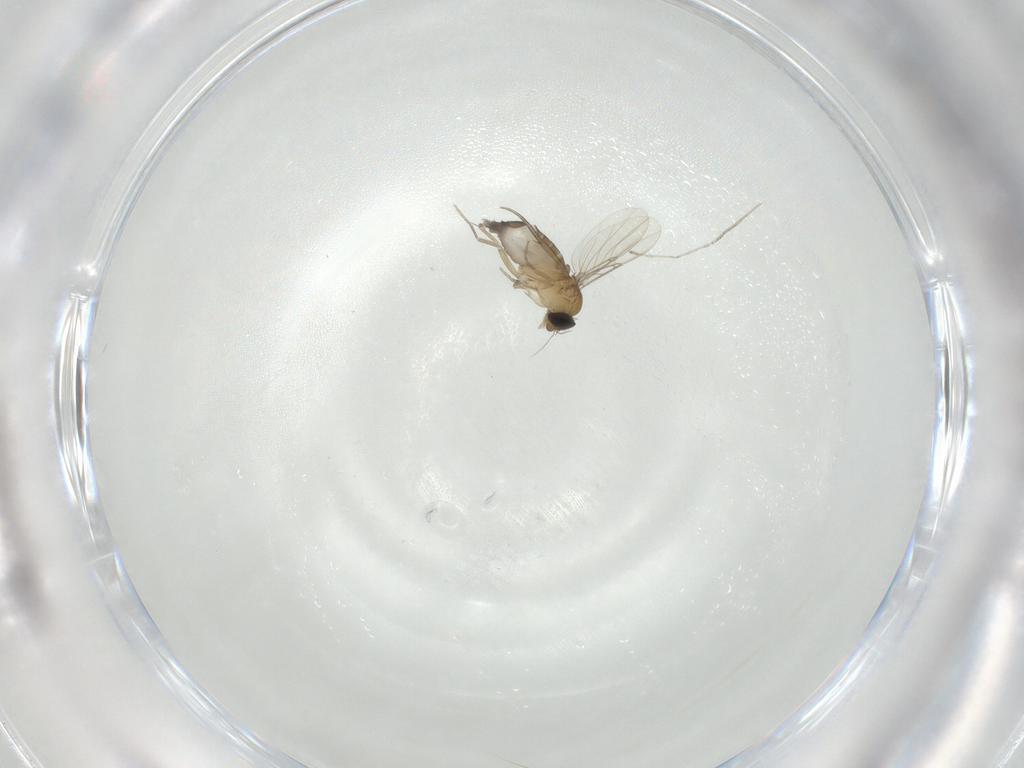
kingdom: Animalia
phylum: Arthropoda
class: Insecta
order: Diptera
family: Phoridae
